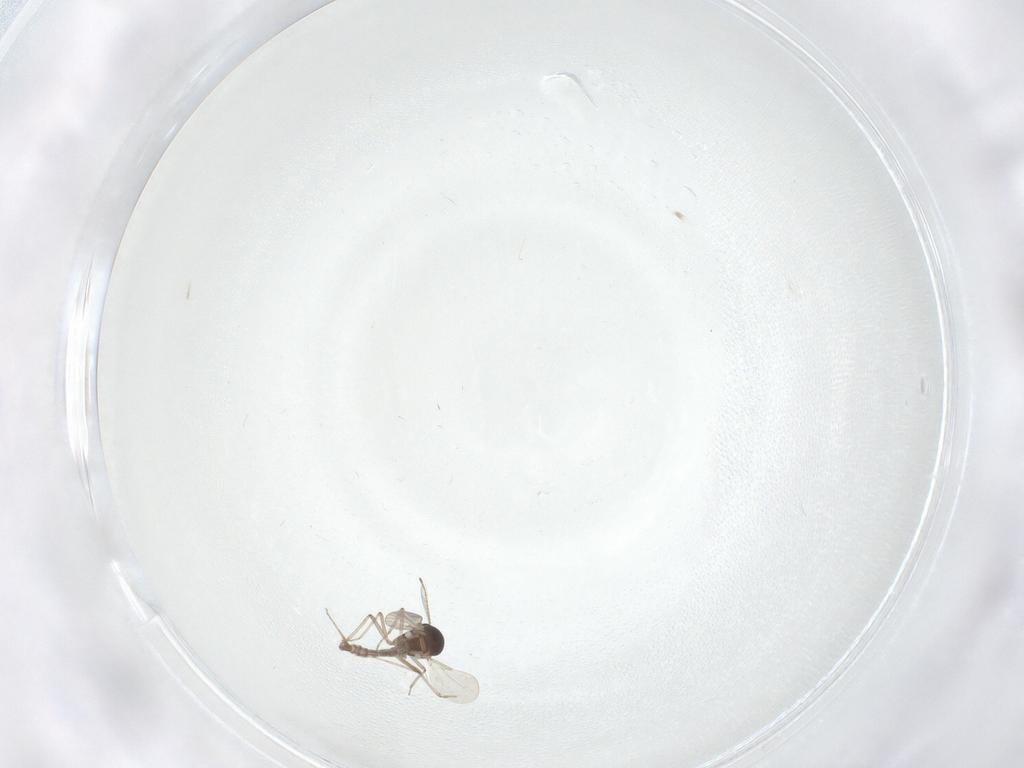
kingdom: Animalia
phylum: Arthropoda
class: Insecta
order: Diptera
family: Ceratopogonidae
